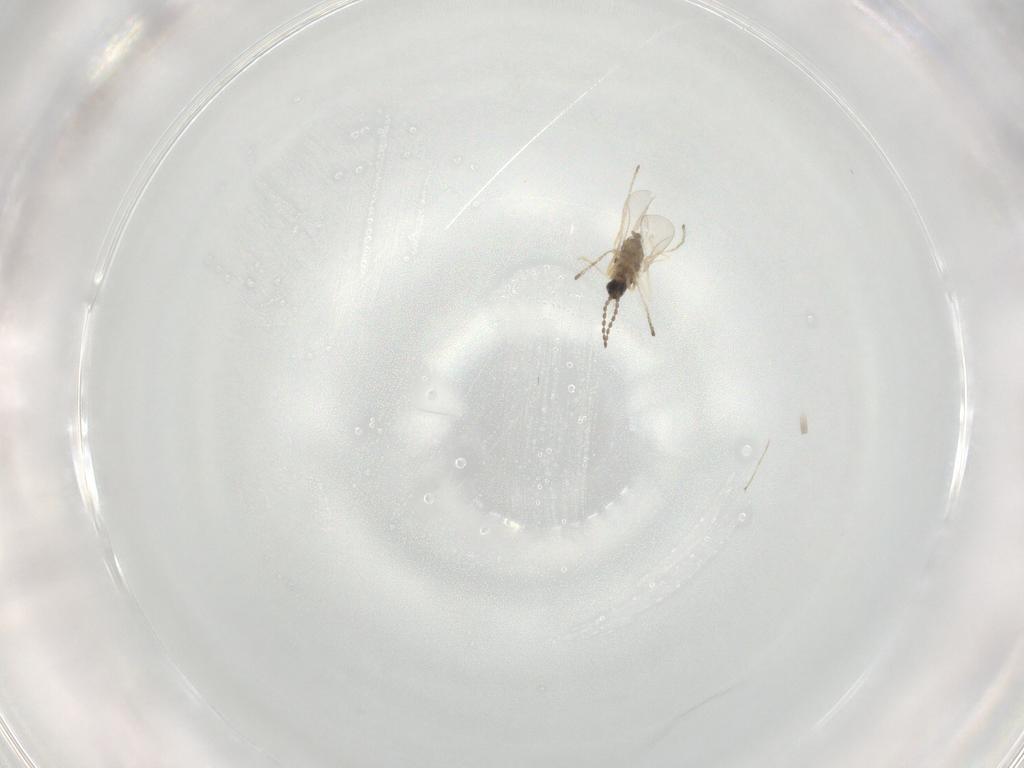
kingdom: Animalia
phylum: Arthropoda
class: Insecta
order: Diptera
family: Cecidomyiidae
